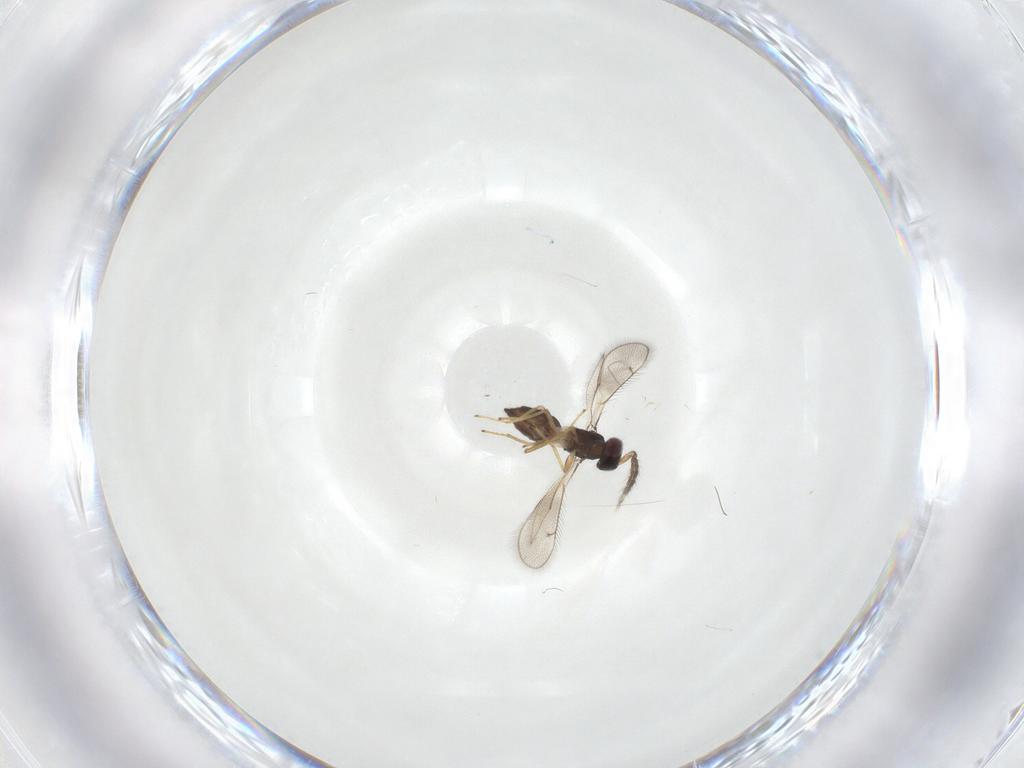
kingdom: Animalia
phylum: Arthropoda
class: Insecta
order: Hymenoptera
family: Eulophidae
